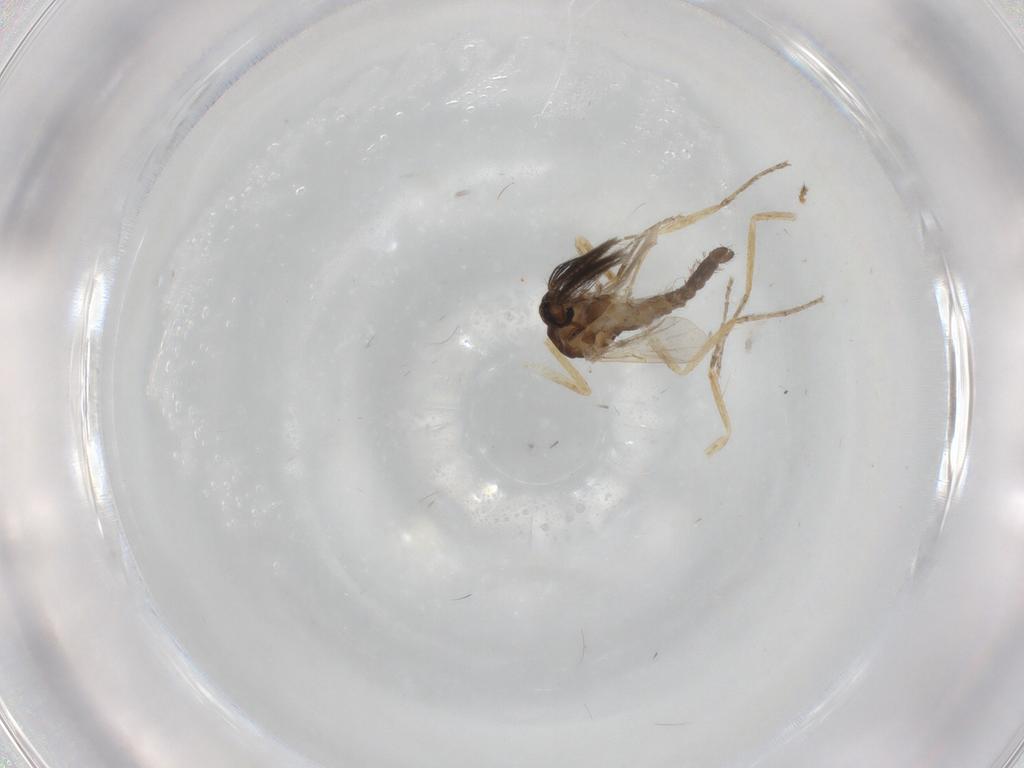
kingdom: Animalia
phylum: Arthropoda
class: Insecta
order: Diptera
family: Ceratopogonidae
